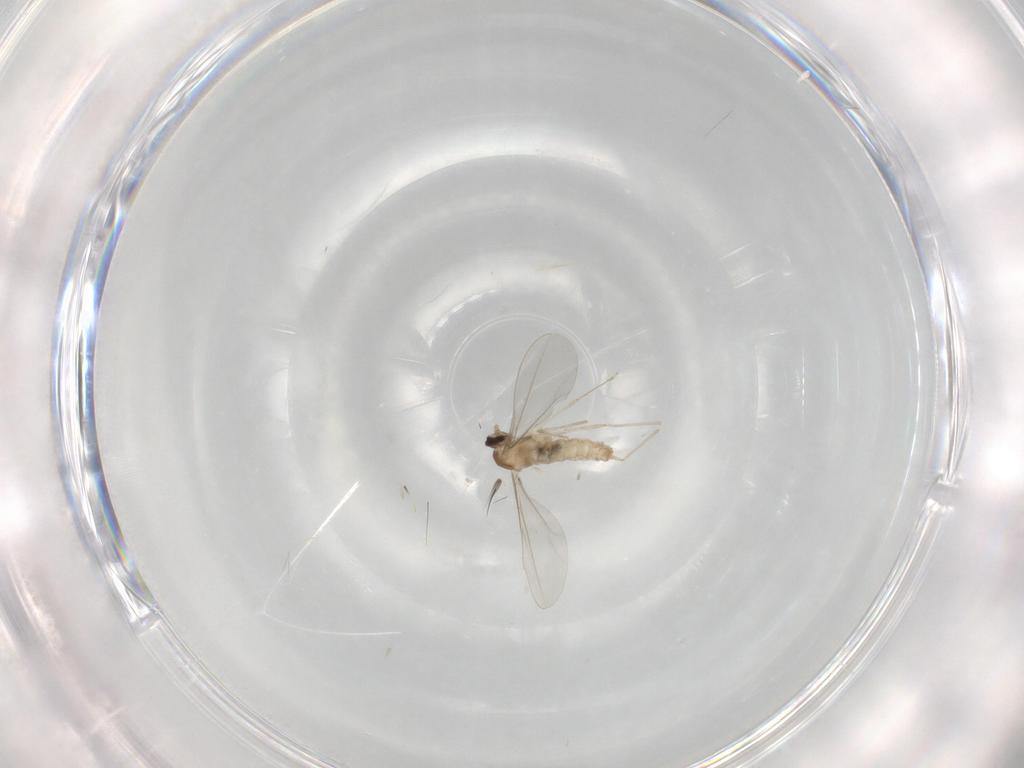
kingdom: Animalia
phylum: Arthropoda
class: Insecta
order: Diptera
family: Cecidomyiidae
